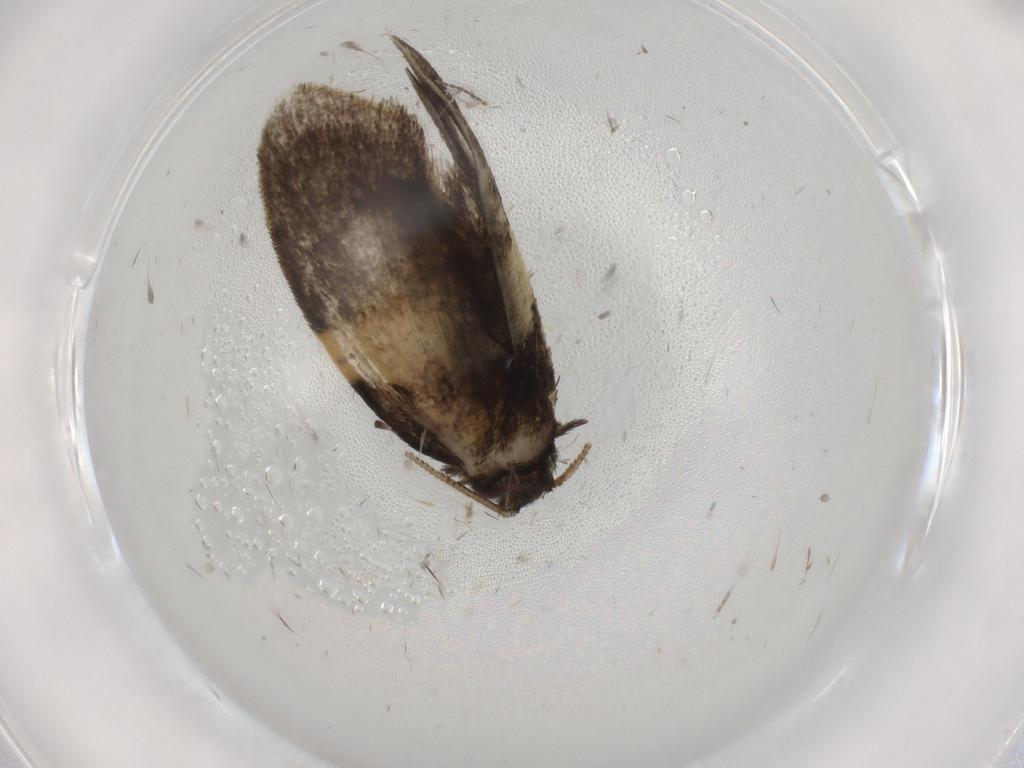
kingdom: Animalia
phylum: Arthropoda
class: Insecta
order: Lepidoptera
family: Psychidae
